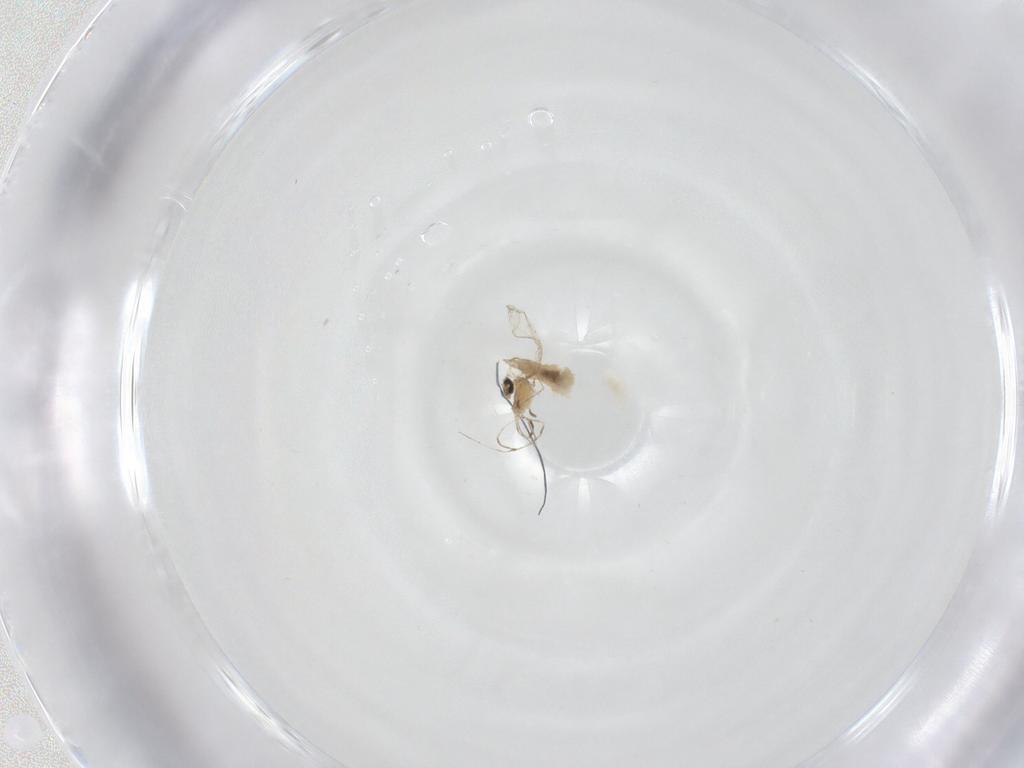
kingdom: Animalia
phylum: Arthropoda
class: Insecta
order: Diptera
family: Cecidomyiidae
